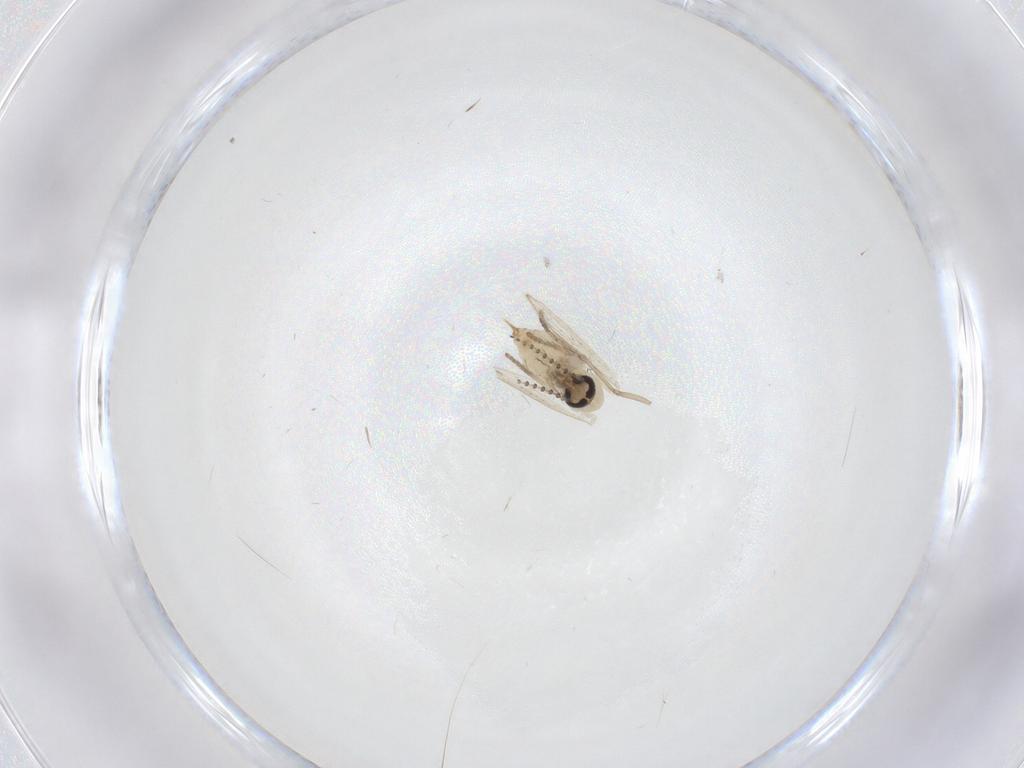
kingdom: Animalia
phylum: Arthropoda
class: Insecta
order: Diptera
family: Psychodidae
